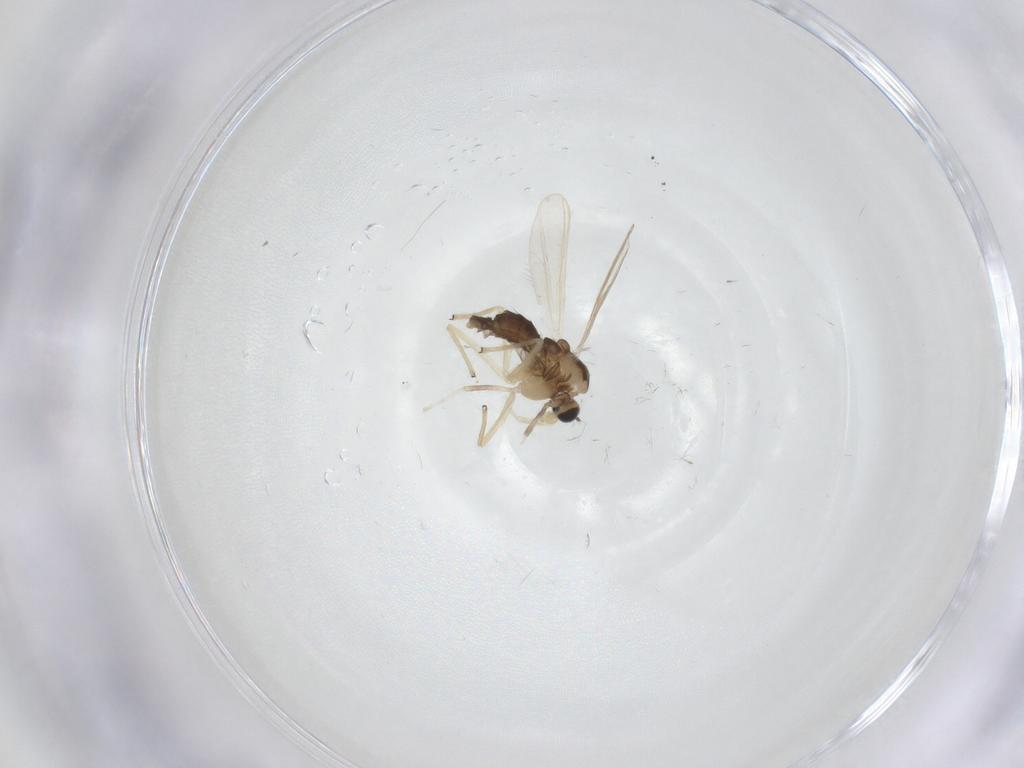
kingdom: Animalia
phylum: Arthropoda
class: Insecta
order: Diptera
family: Chironomidae
